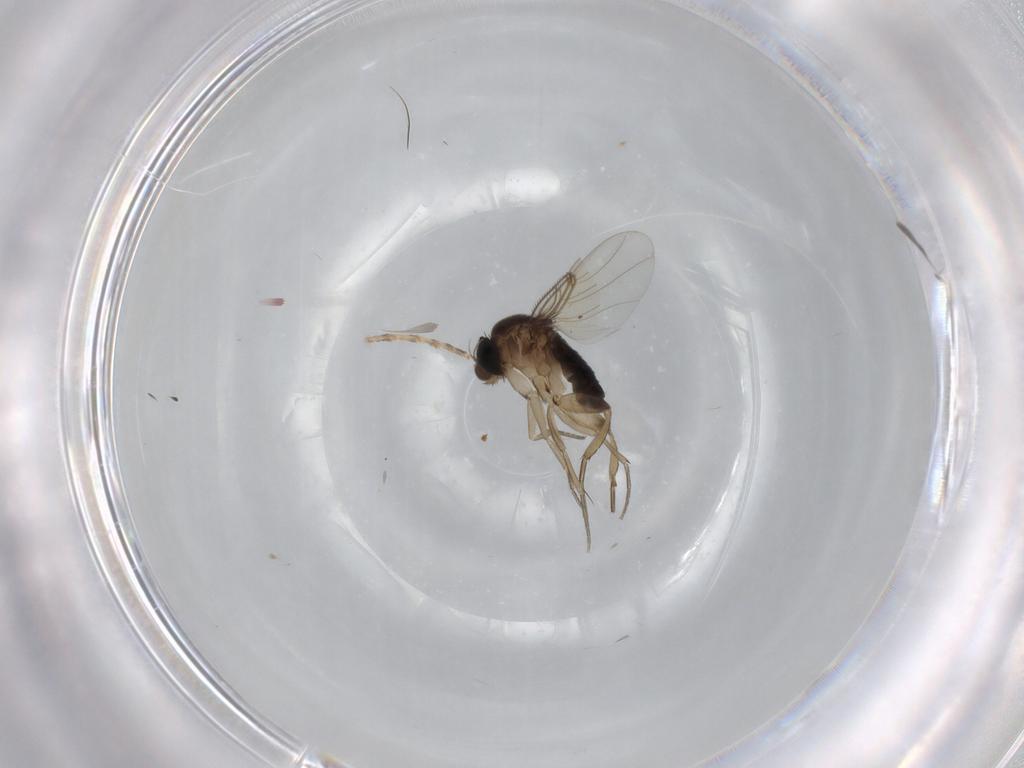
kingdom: Animalia
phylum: Arthropoda
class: Insecta
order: Diptera
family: Phoridae
